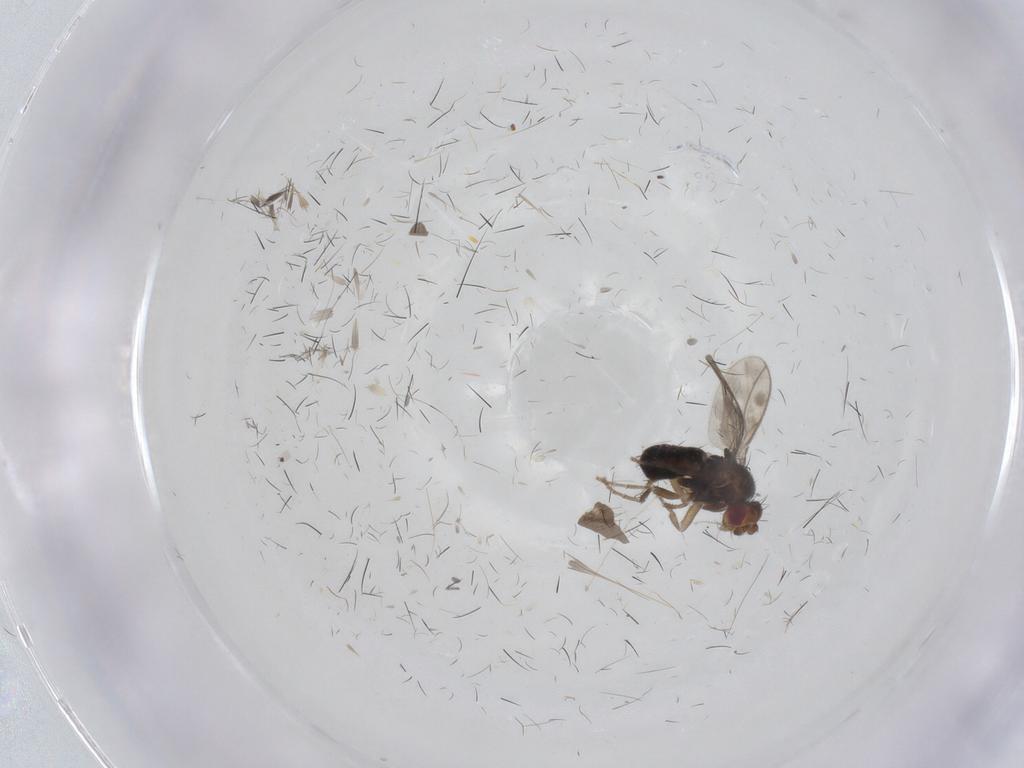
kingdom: Animalia
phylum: Arthropoda
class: Insecta
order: Diptera
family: Sphaeroceridae
